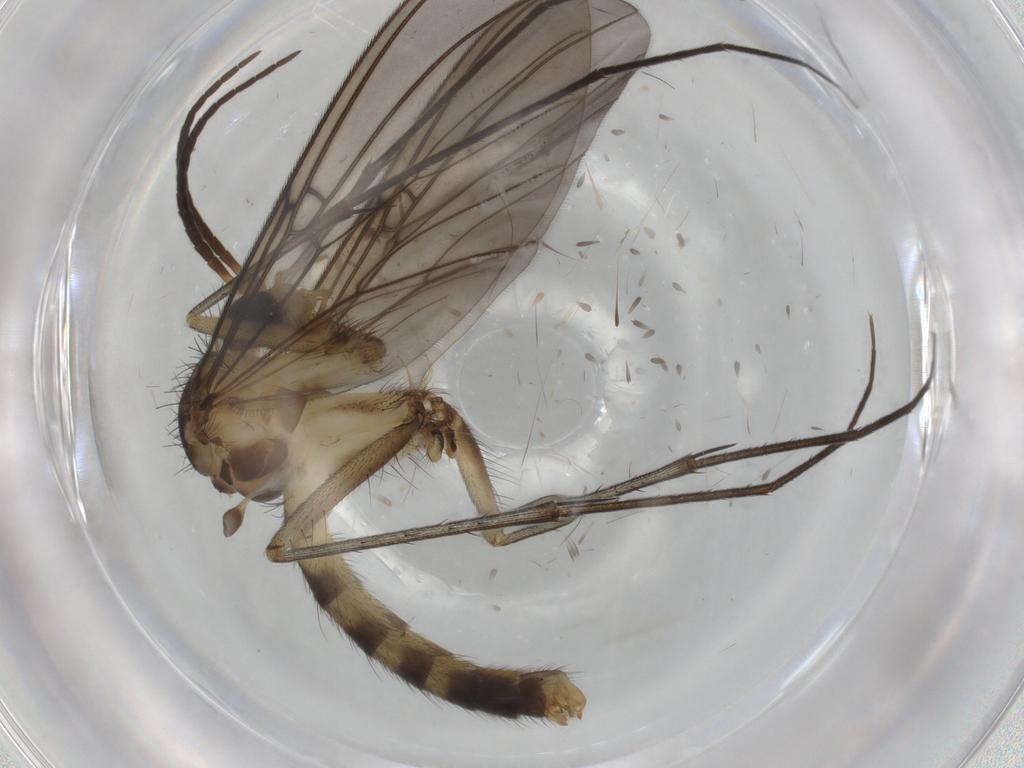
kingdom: Animalia
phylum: Arthropoda
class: Insecta
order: Diptera
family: Mycetophilidae
